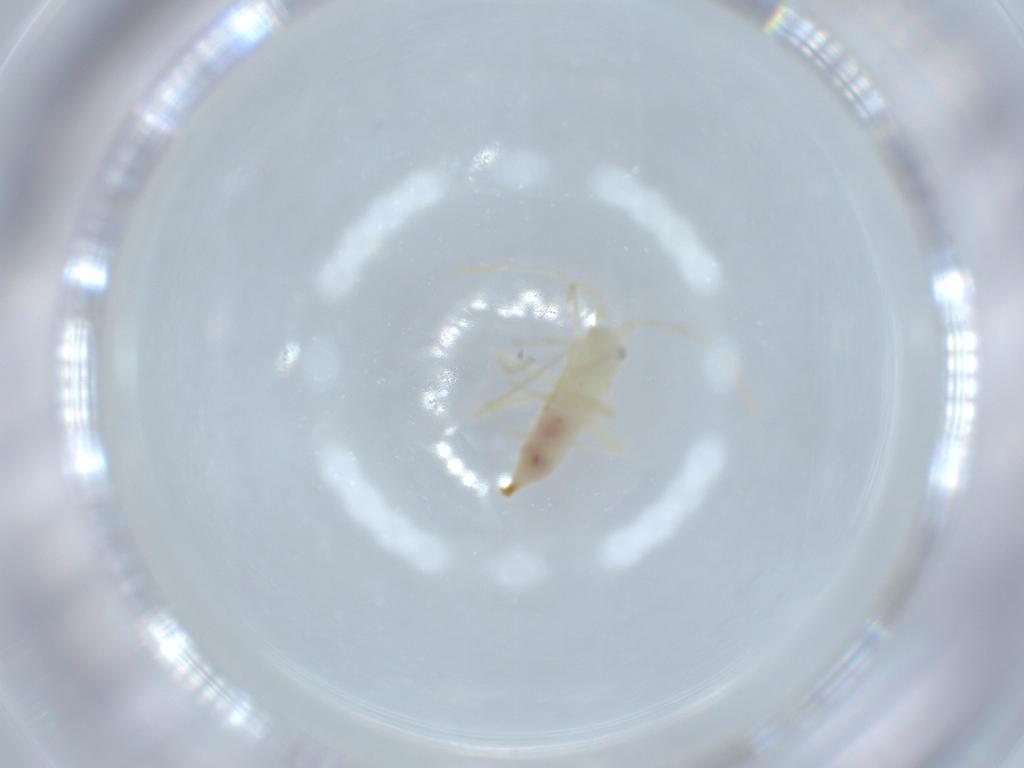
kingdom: Animalia
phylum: Arthropoda
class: Insecta
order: Hemiptera
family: Miridae
